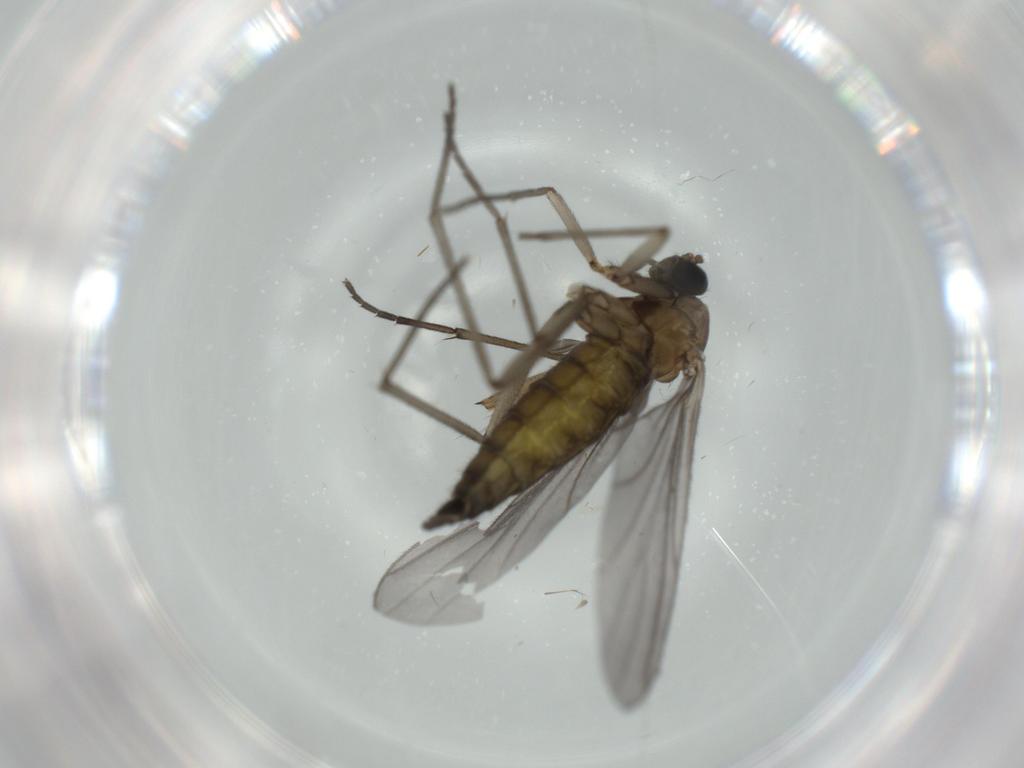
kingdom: Animalia
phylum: Arthropoda
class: Insecta
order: Diptera
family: Sciaridae
